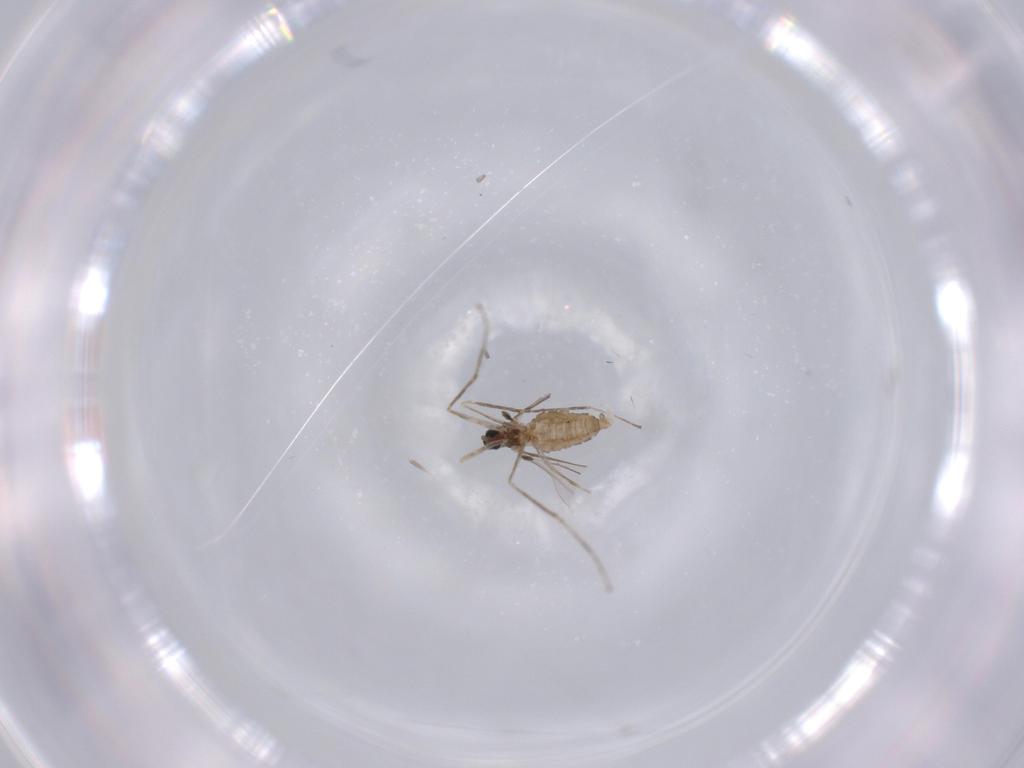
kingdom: Animalia
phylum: Arthropoda
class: Insecta
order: Diptera
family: Cecidomyiidae
